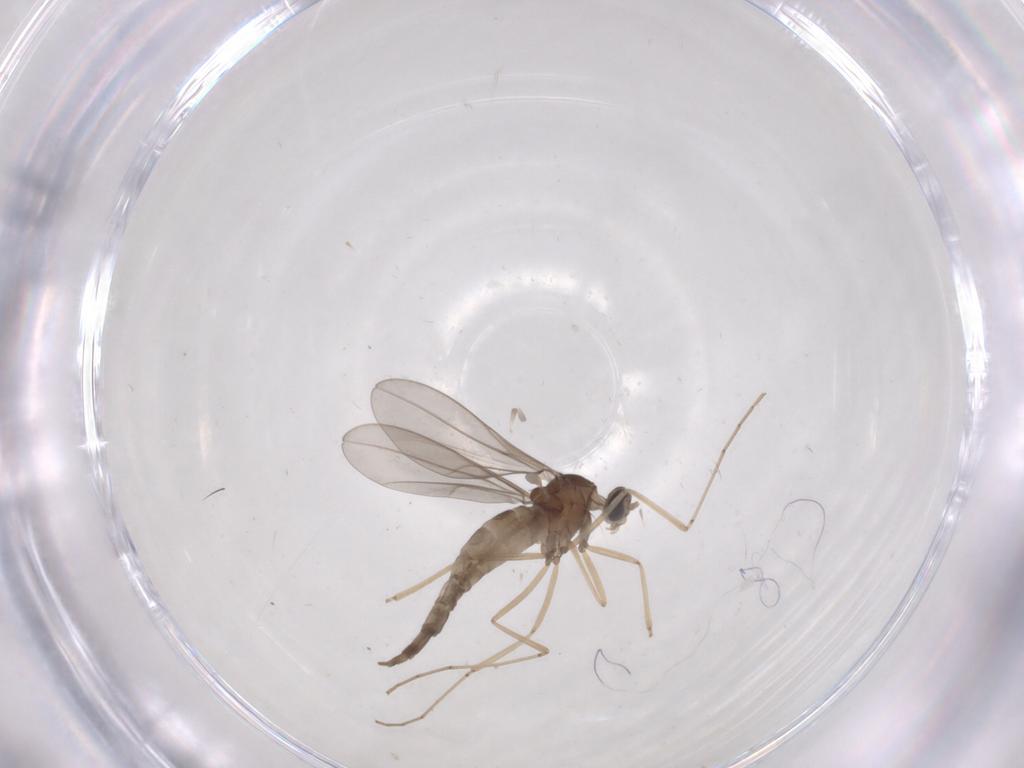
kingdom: Animalia
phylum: Arthropoda
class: Insecta
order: Diptera
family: Cecidomyiidae
